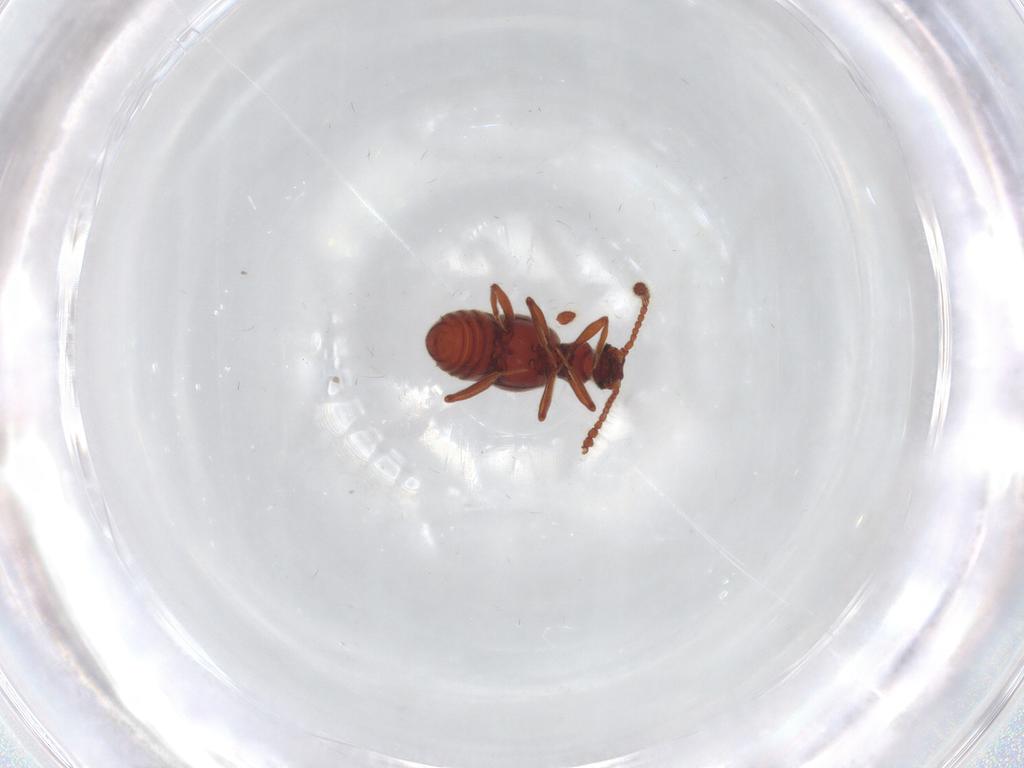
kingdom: Animalia
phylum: Arthropoda
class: Insecta
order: Coleoptera
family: Staphylinidae
